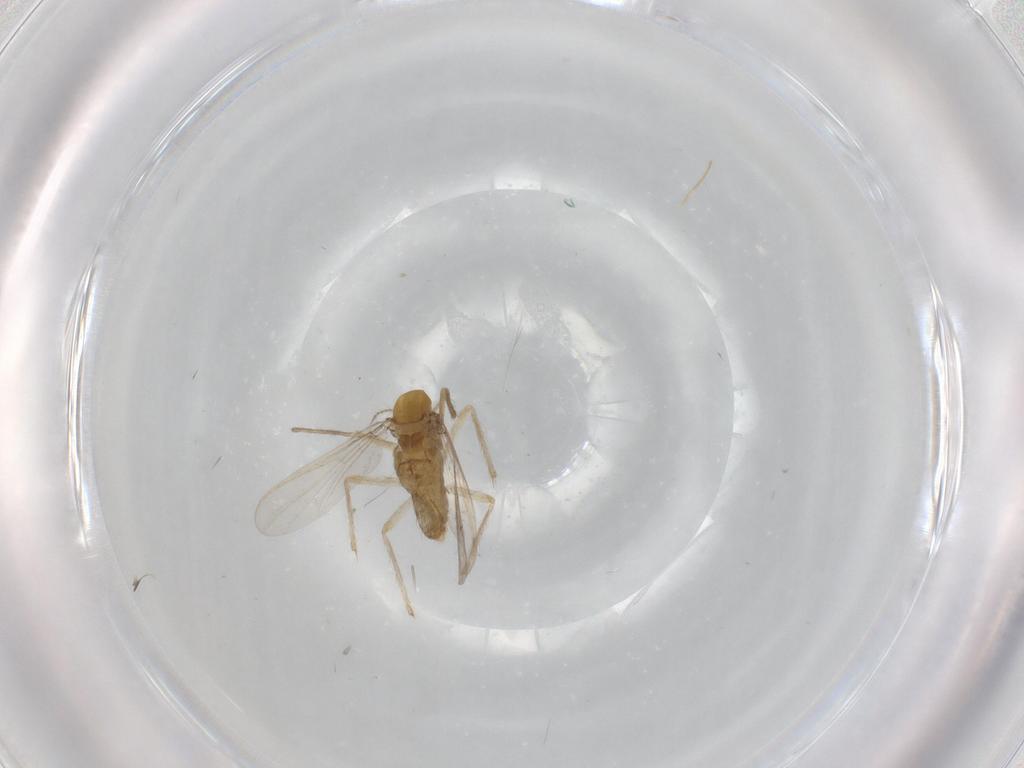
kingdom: Animalia
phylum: Arthropoda
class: Insecta
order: Diptera
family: Chironomidae
